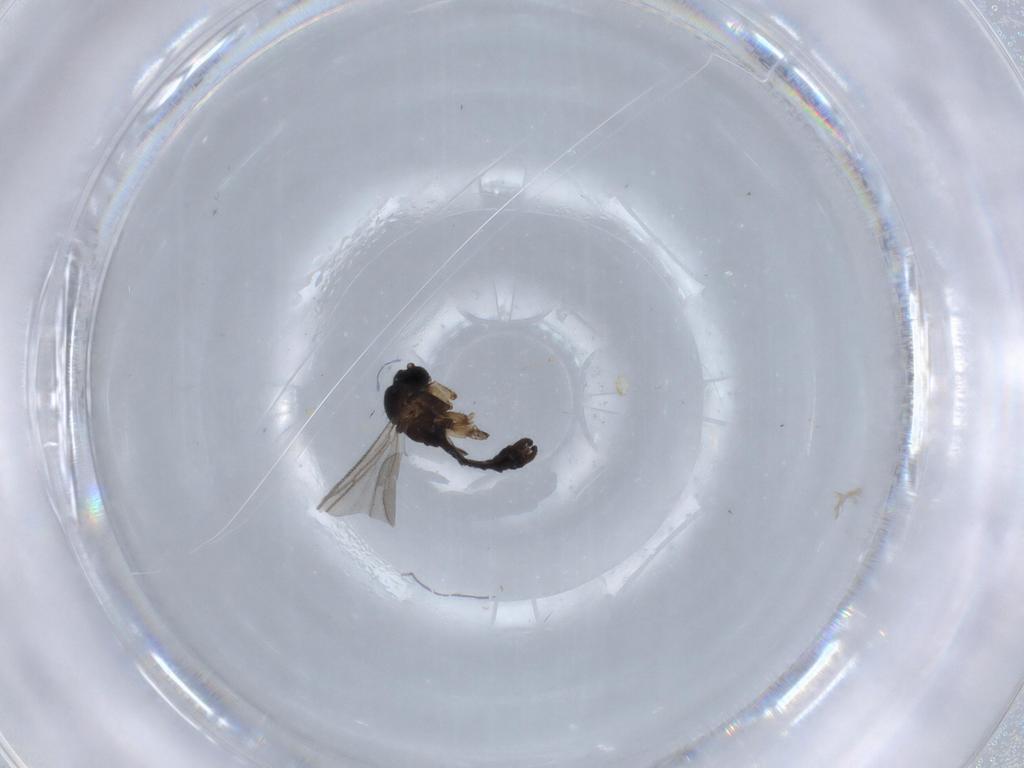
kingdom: Animalia
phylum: Arthropoda
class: Insecta
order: Diptera
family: Sciaridae
